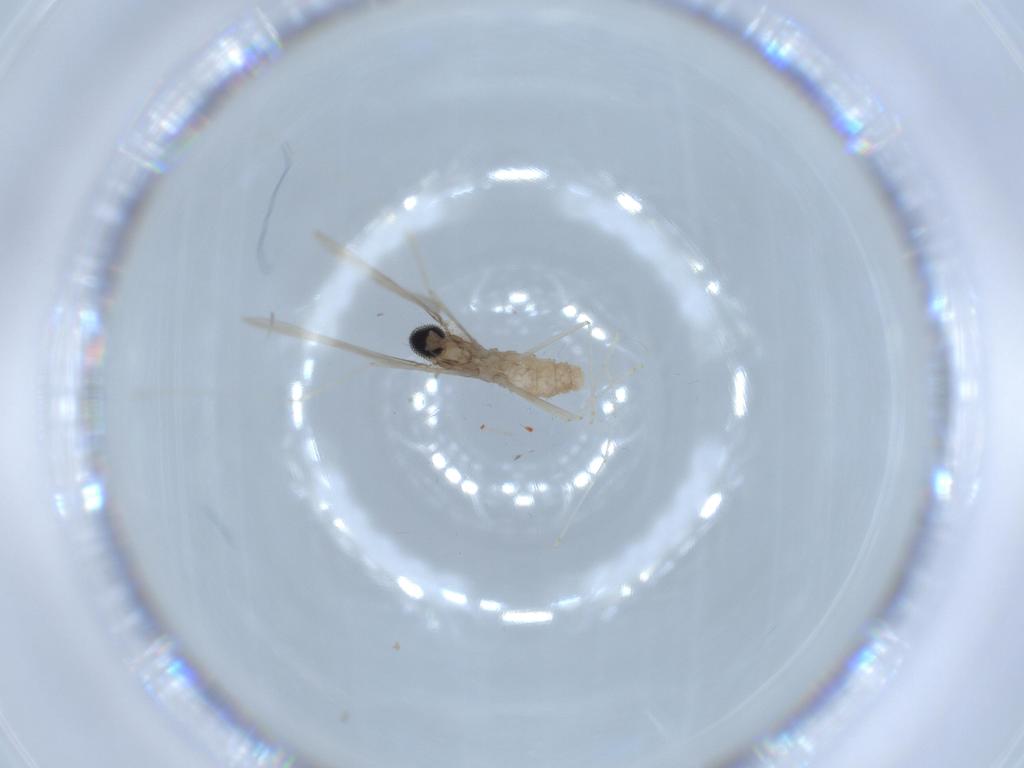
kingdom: Animalia
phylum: Arthropoda
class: Insecta
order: Diptera
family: Cecidomyiidae
